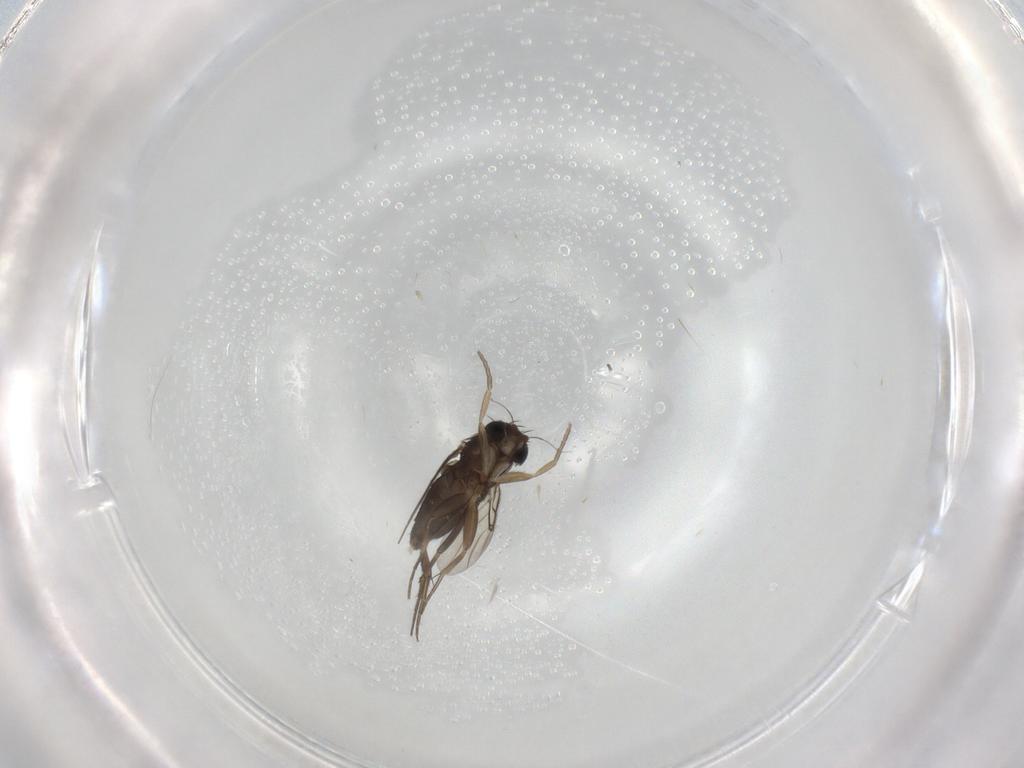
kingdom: Animalia
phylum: Arthropoda
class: Insecta
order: Diptera
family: Phoridae
